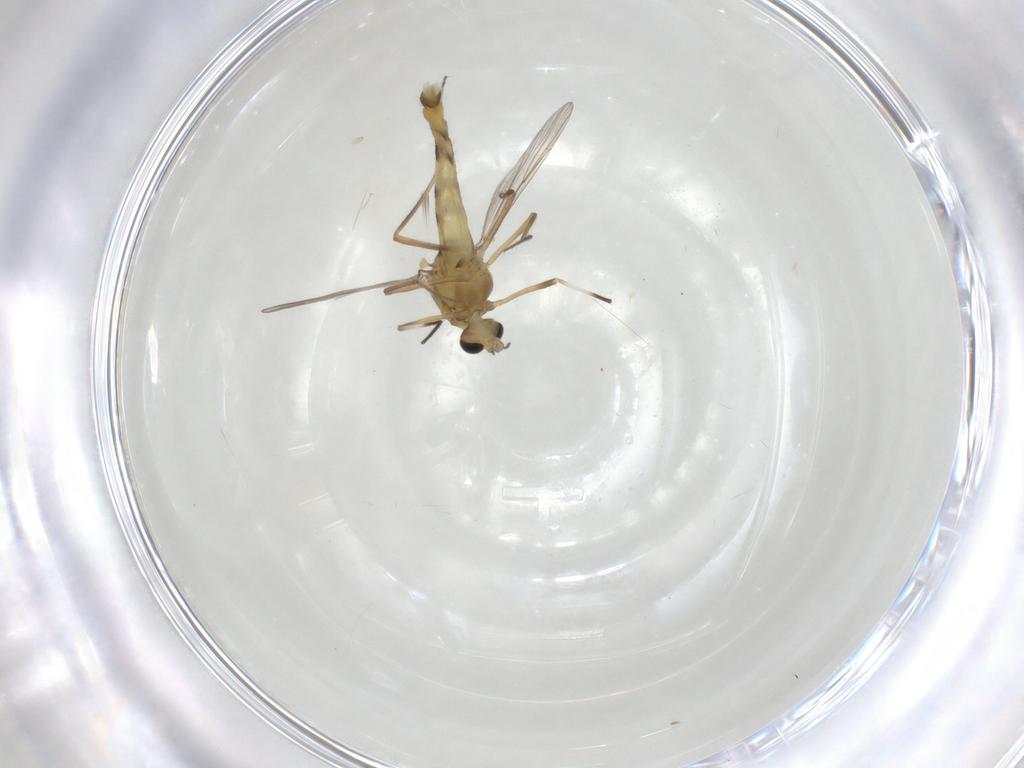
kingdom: Animalia
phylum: Arthropoda
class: Insecta
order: Diptera
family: Chironomidae
